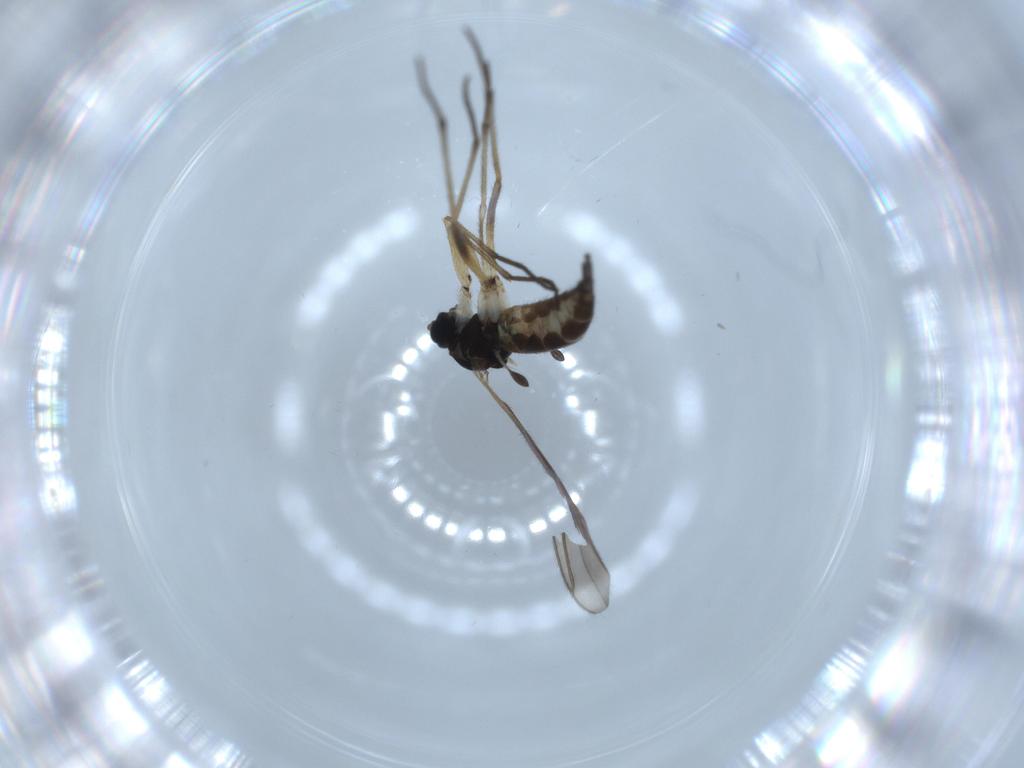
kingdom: Animalia
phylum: Arthropoda
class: Insecta
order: Diptera
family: Sciaridae
